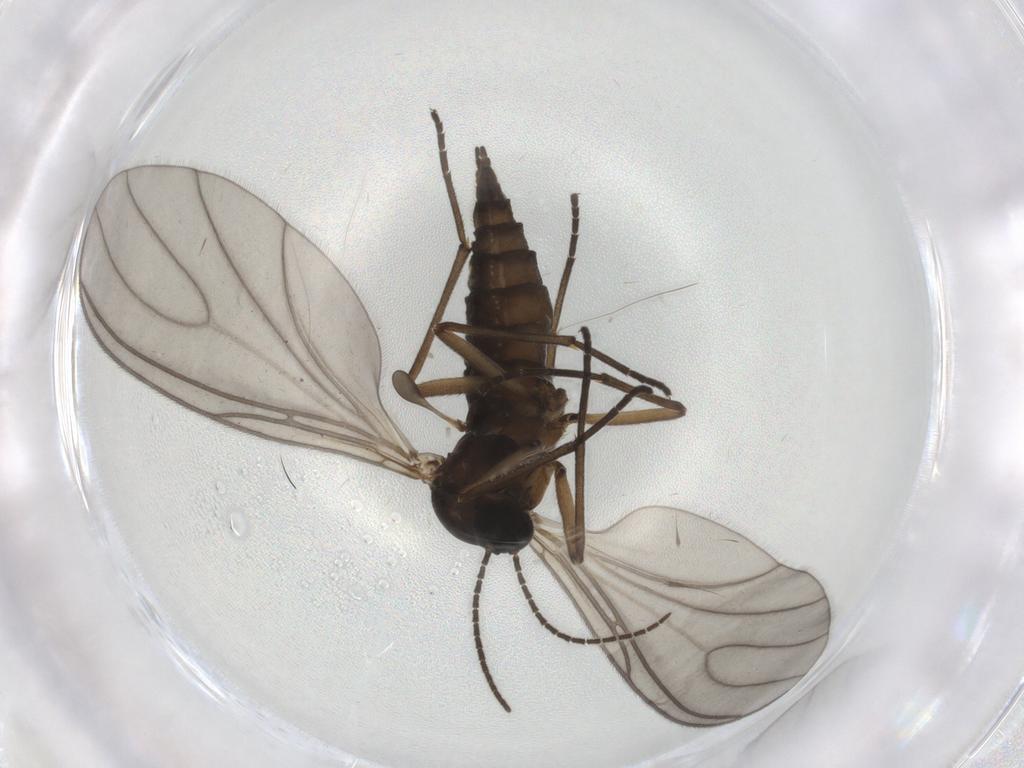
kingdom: Animalia
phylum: Arthropoda
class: Insecta
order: Diptera
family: Sciaridae
